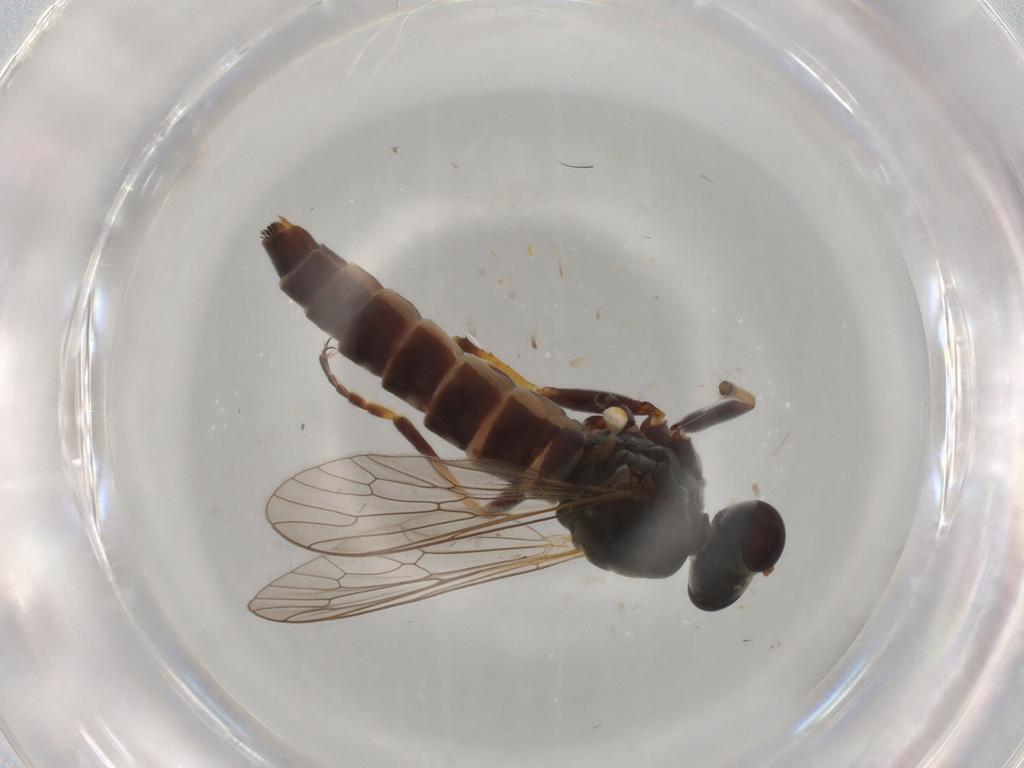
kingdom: Animalia
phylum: Arthropoda
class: Insecta
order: Diptera
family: Asilidae
